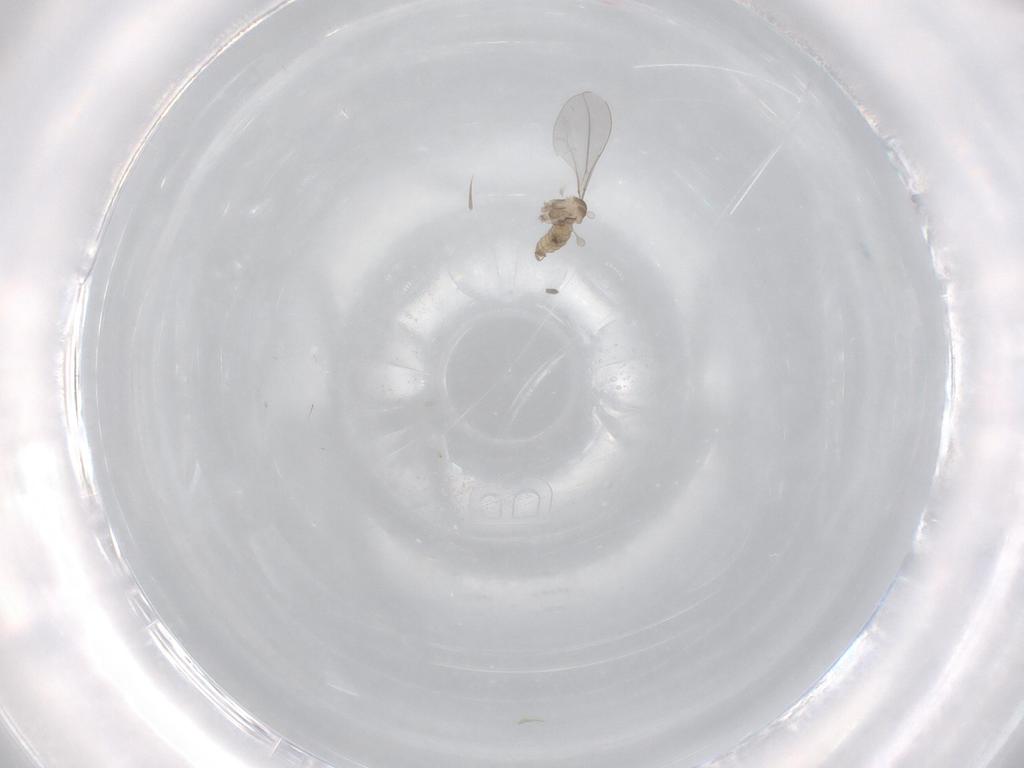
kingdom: Animalia
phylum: Arthropoda
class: Insecta
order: Diptera
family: Cecidomyiidae
